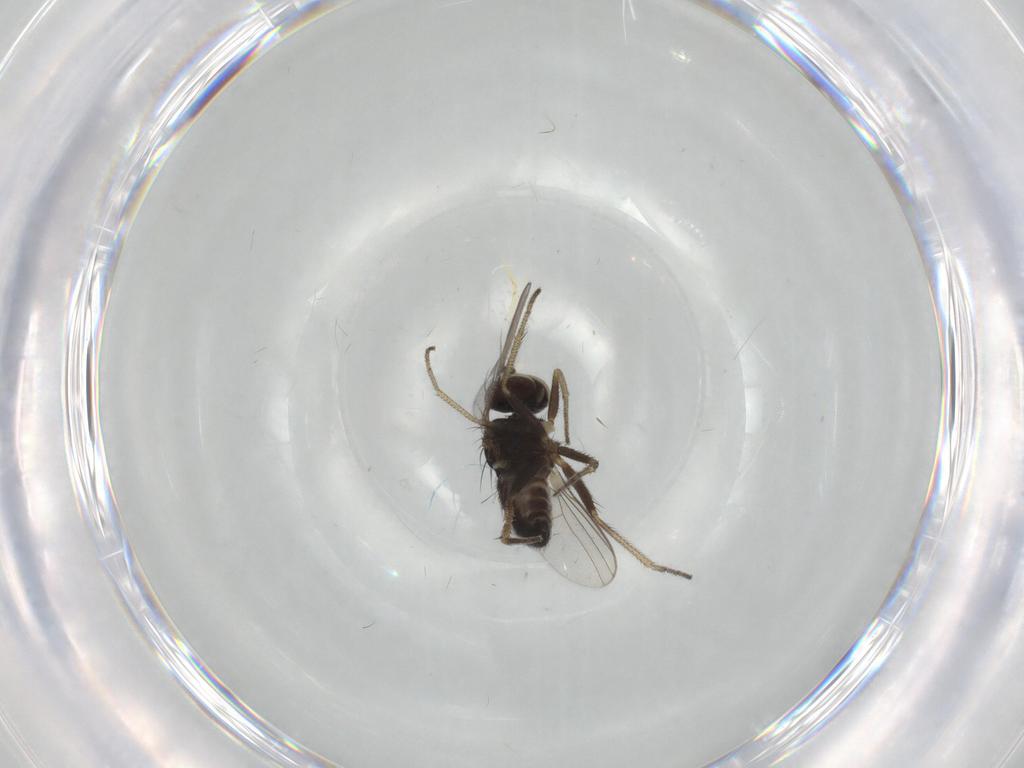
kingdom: Animalia
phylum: Arthropoda
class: Insecta
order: Diptera
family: Dolichopodidae
